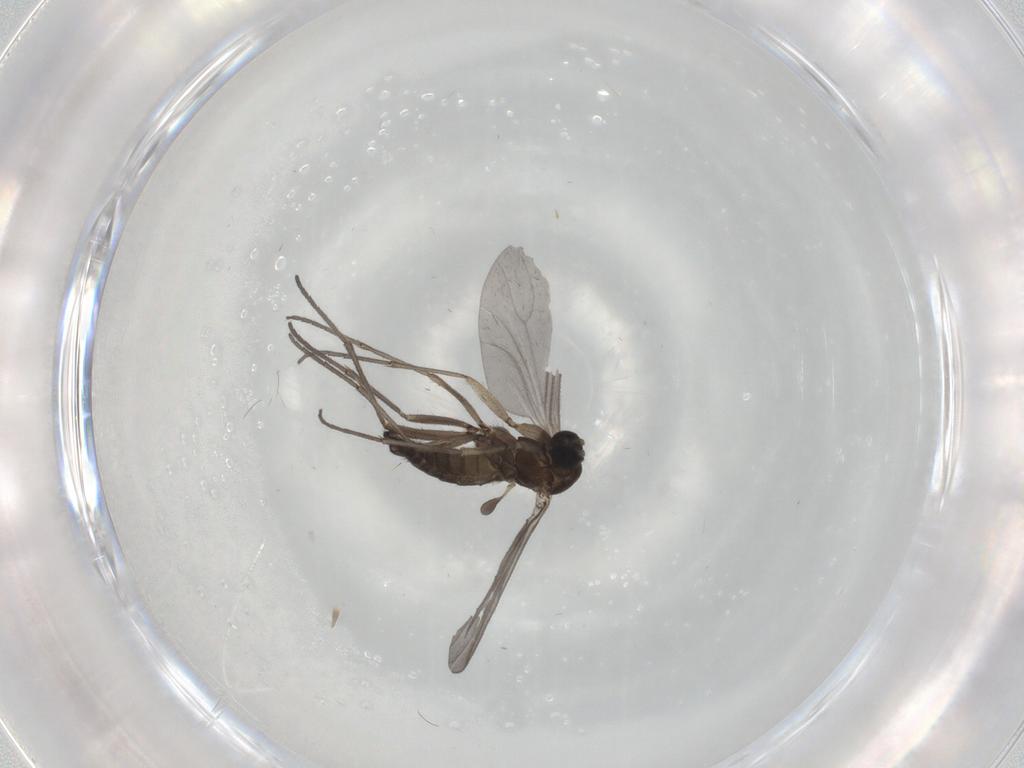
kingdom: Animalia
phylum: Arthropoda
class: Insecta
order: Diptera
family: Sciaridae
